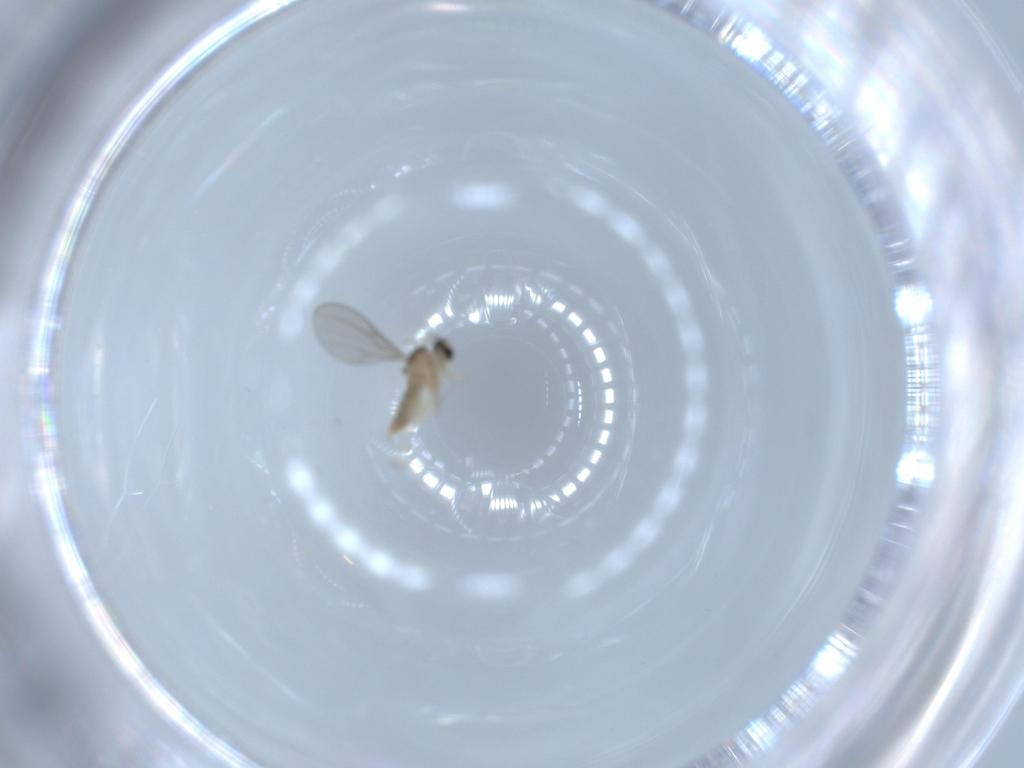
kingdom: Animalia
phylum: Arthropoda
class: Insecta
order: Diptera
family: Cecidomyiidae
